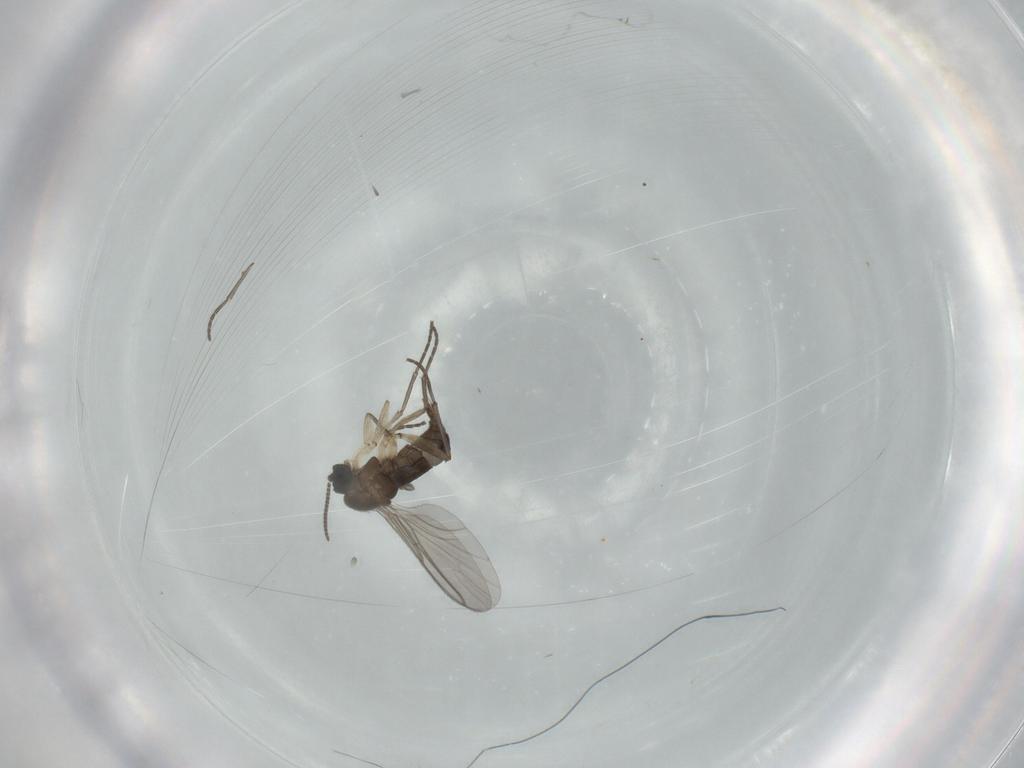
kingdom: Animalia
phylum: Arthropoda
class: Insecta
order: Diptera
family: Sciaridae
